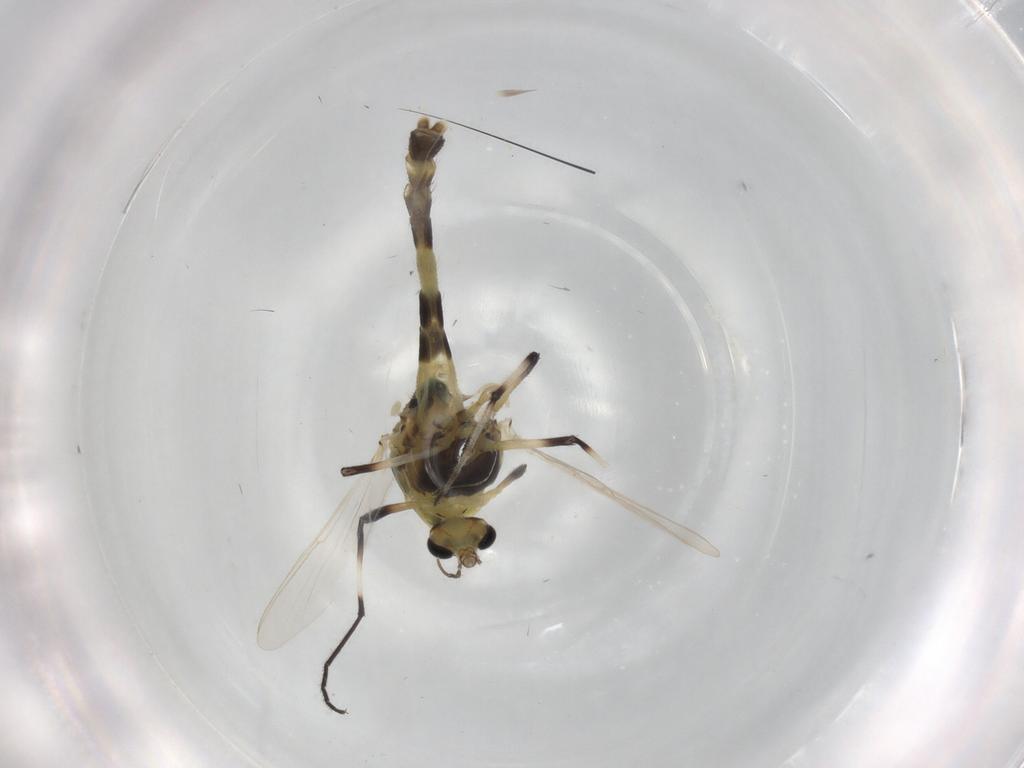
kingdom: Animalia
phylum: Arthropoda
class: Insecta
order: Diptera
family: Chironomidae
